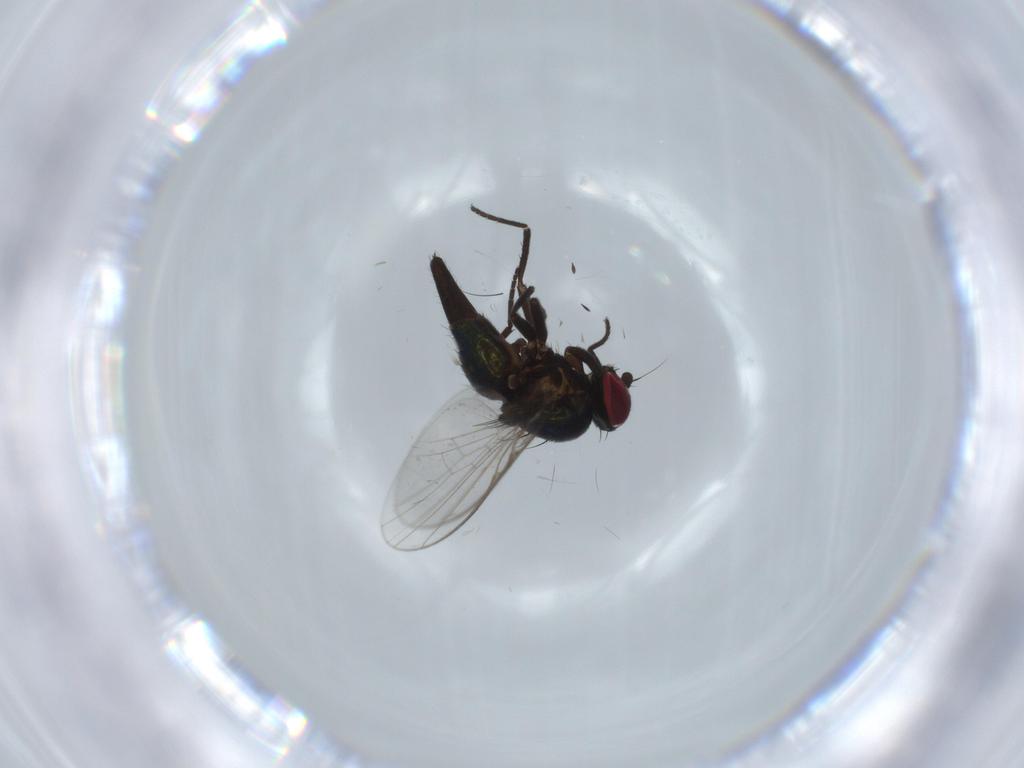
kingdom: Animalia
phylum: Arthropoda
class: Insecta
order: Diptera
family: Agromyzidae
